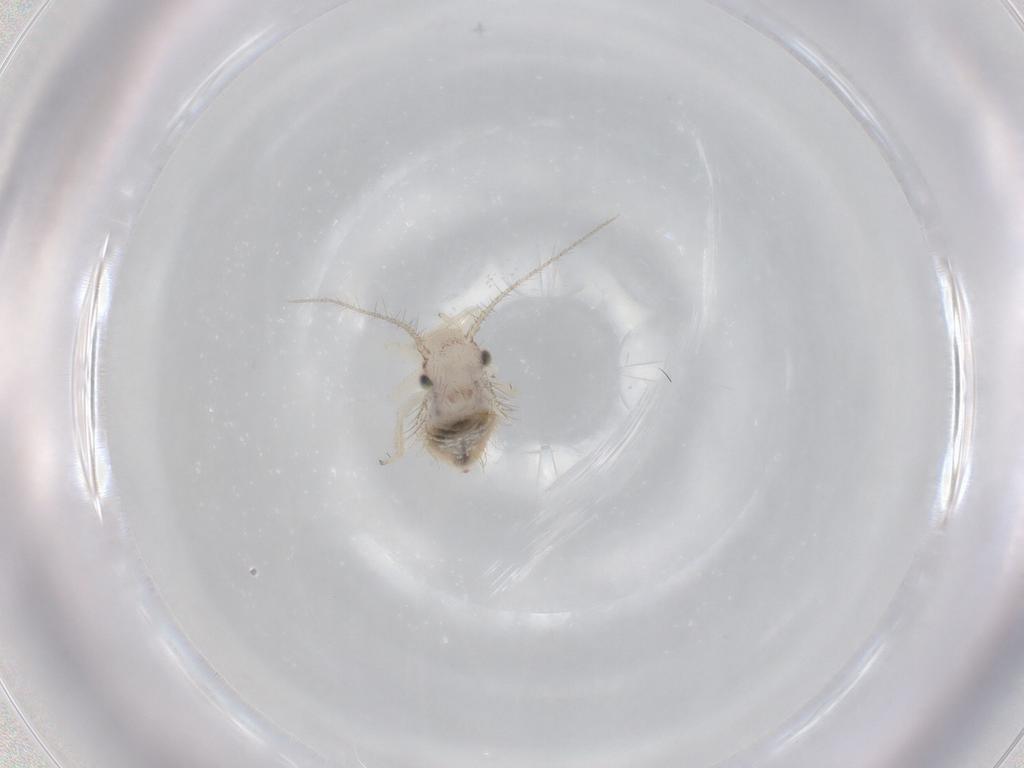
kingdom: Animalia
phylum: Arthropoda
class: Insecta
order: Psocodea
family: Pseudocaeciliidae
